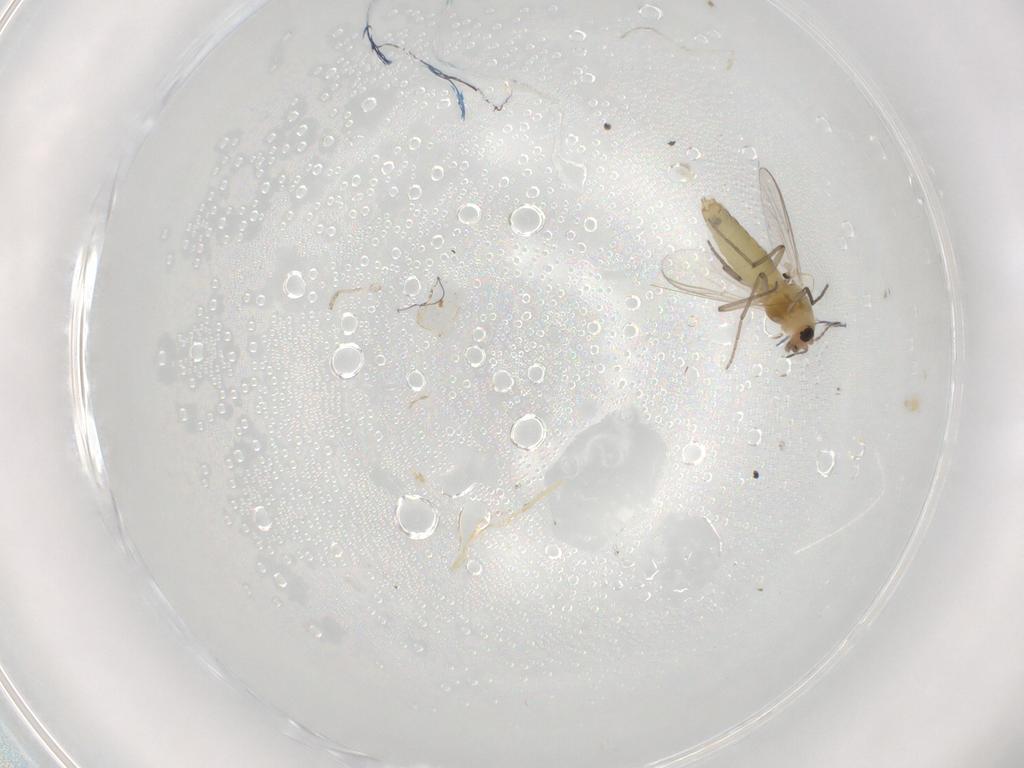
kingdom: Animalia
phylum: Arthropoda
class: Insecta
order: Diptera
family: Chironomidae
